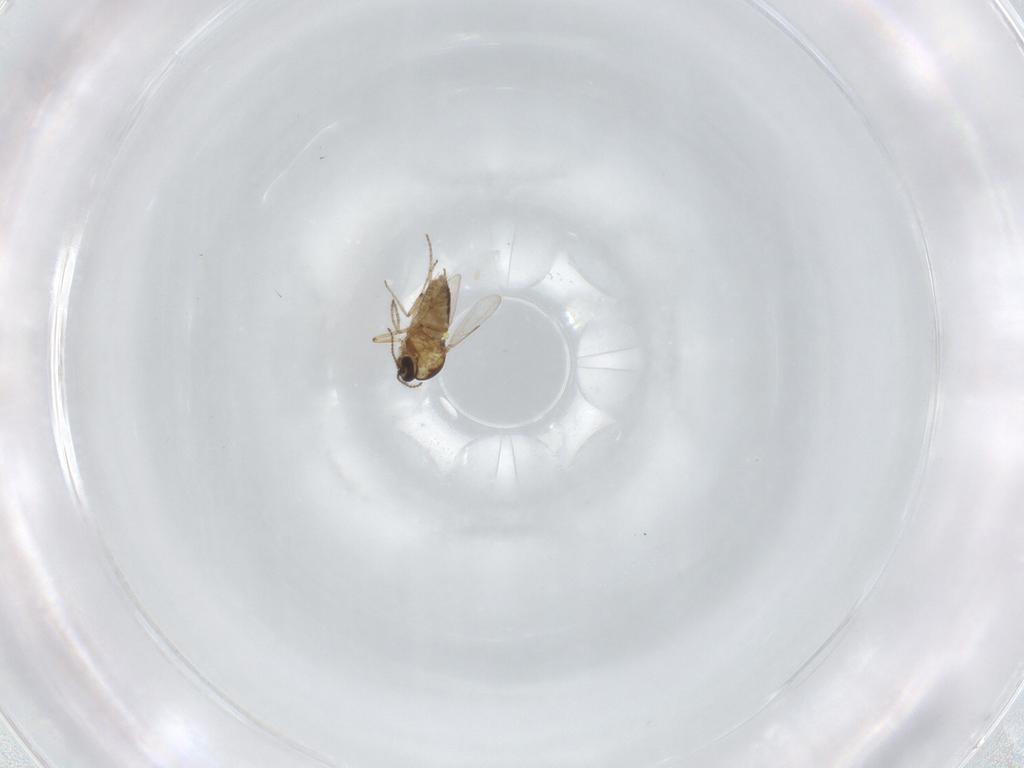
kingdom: Animalia
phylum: Arthropoda
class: Insecta
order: Diptera
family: Ceratopogonidae
